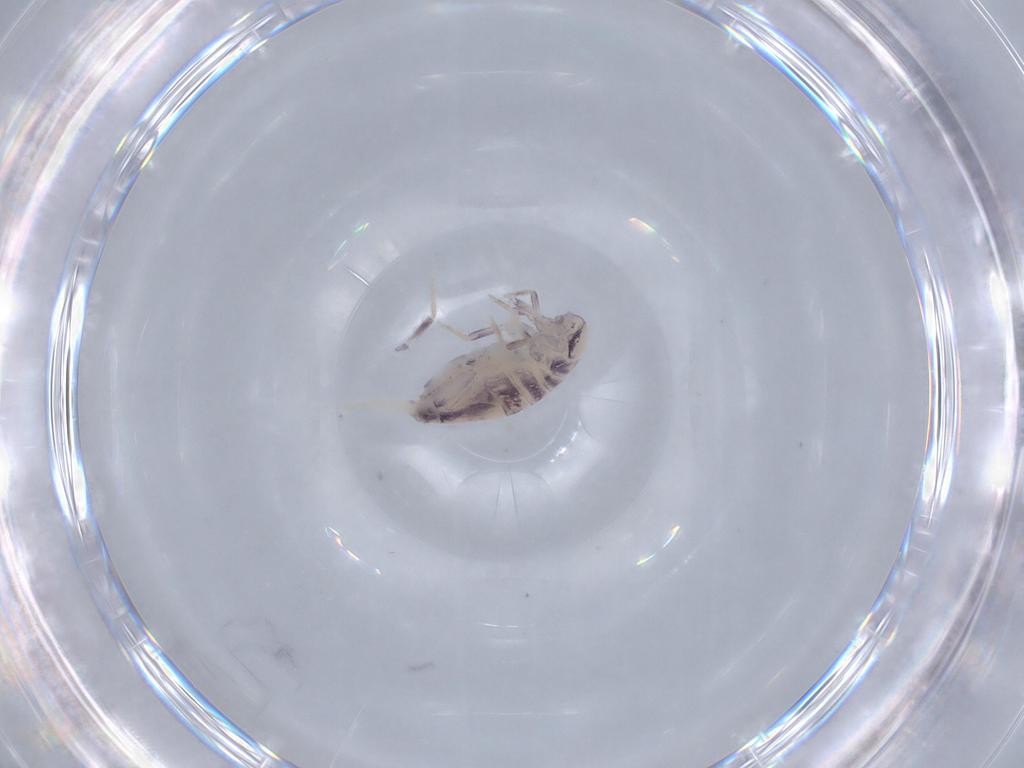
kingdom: Animalia
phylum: Arthropoda
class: Collembola
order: Poduromorpha
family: Hypogastruridae
